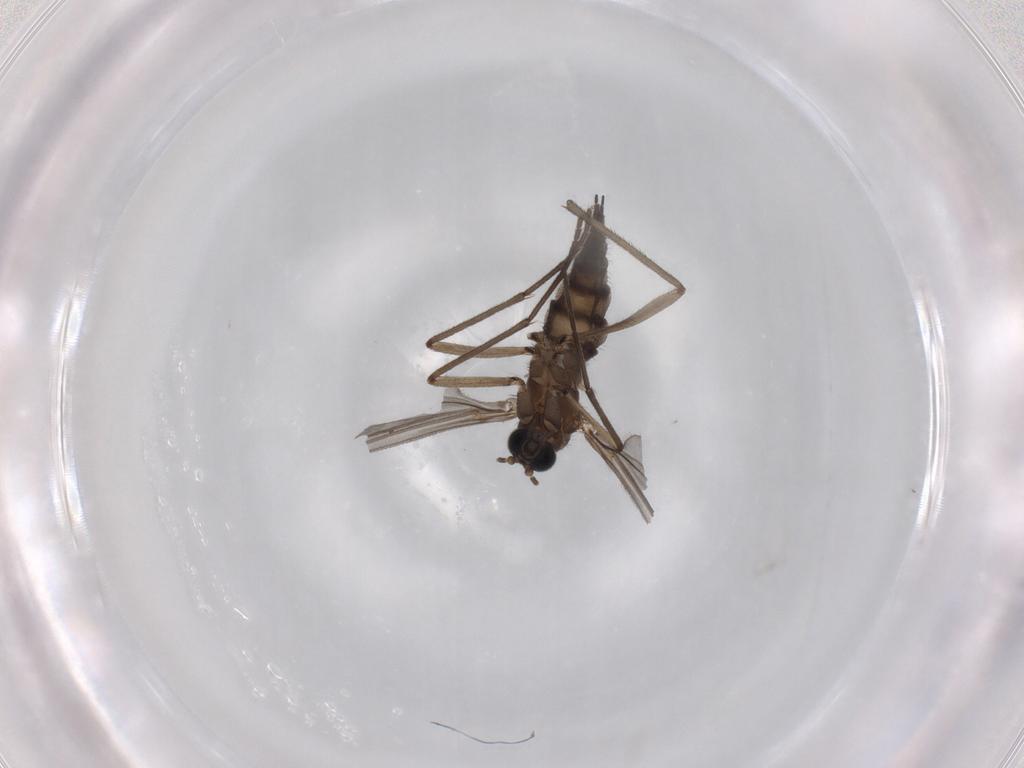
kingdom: Animalia
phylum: Arthropoda
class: Insecta
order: Diptera
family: Sciaridae
